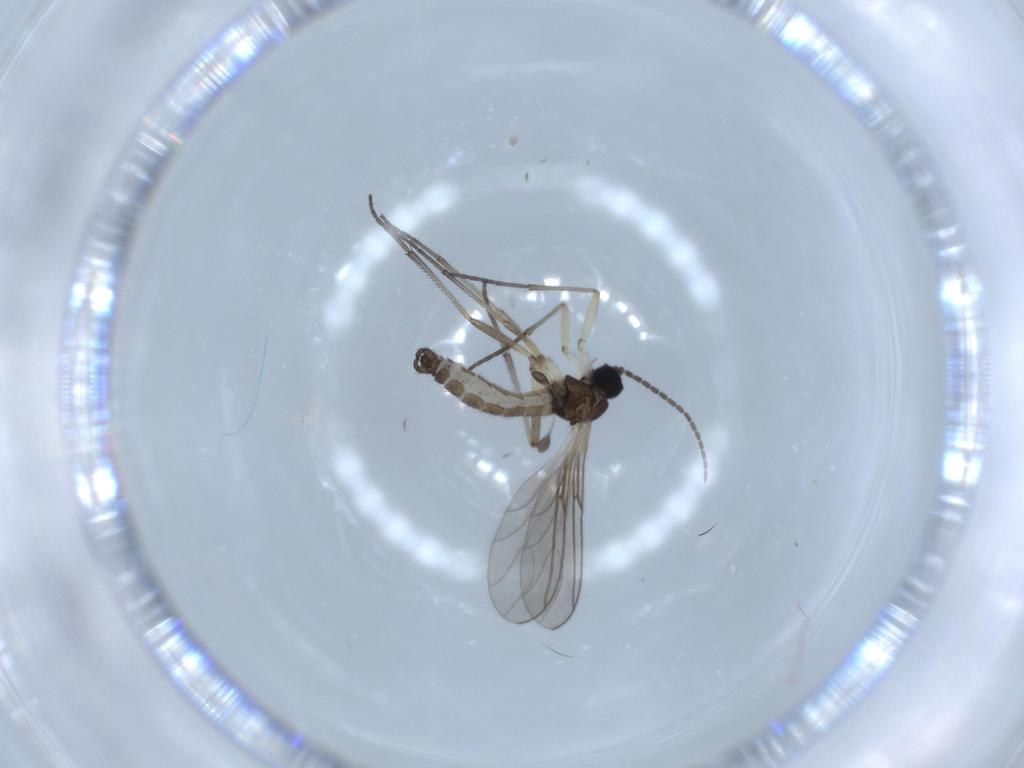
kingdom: Animalia
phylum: Arthropoda
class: Insecta
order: Diptera
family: Sciaridae
